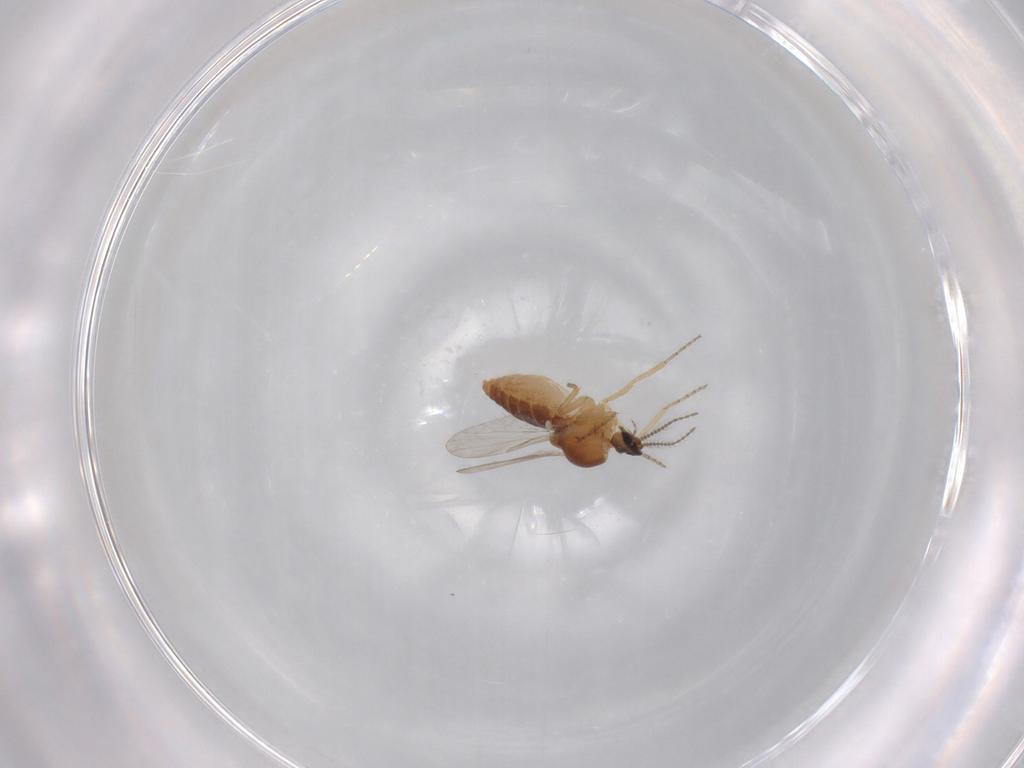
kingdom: Animalia
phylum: Arthropoda
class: Insecta
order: Diptera
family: Ceratopogonidae
